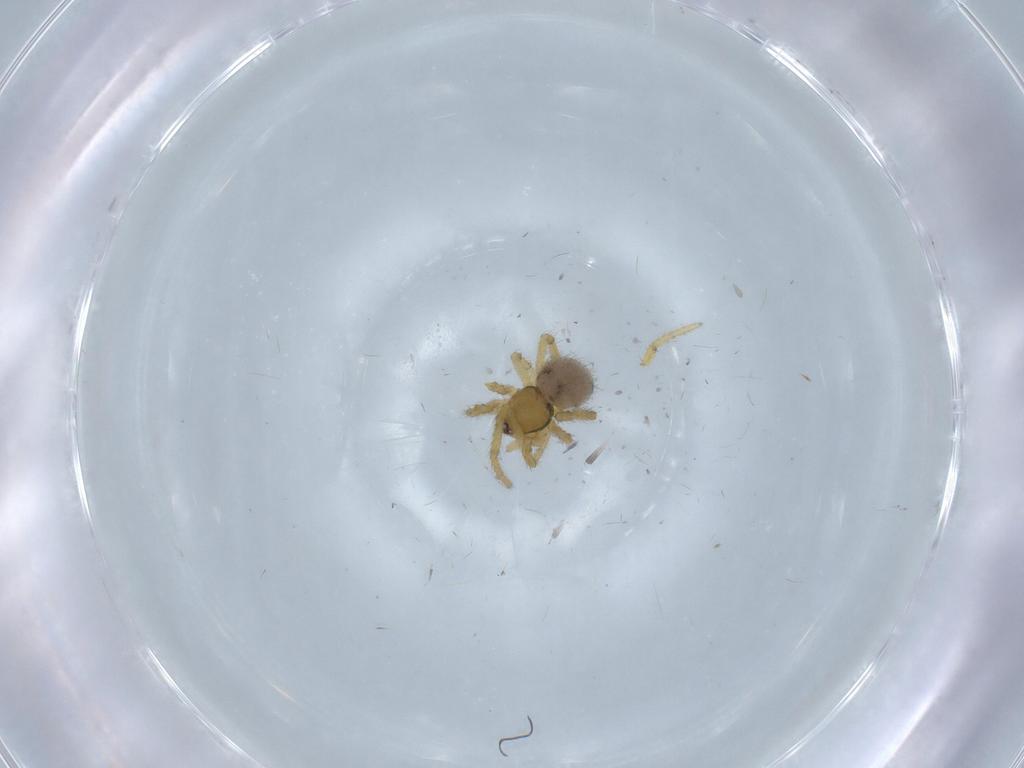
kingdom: Animalia
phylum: Arthropoda
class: Arachnida
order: Araneae
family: Theridiidae
